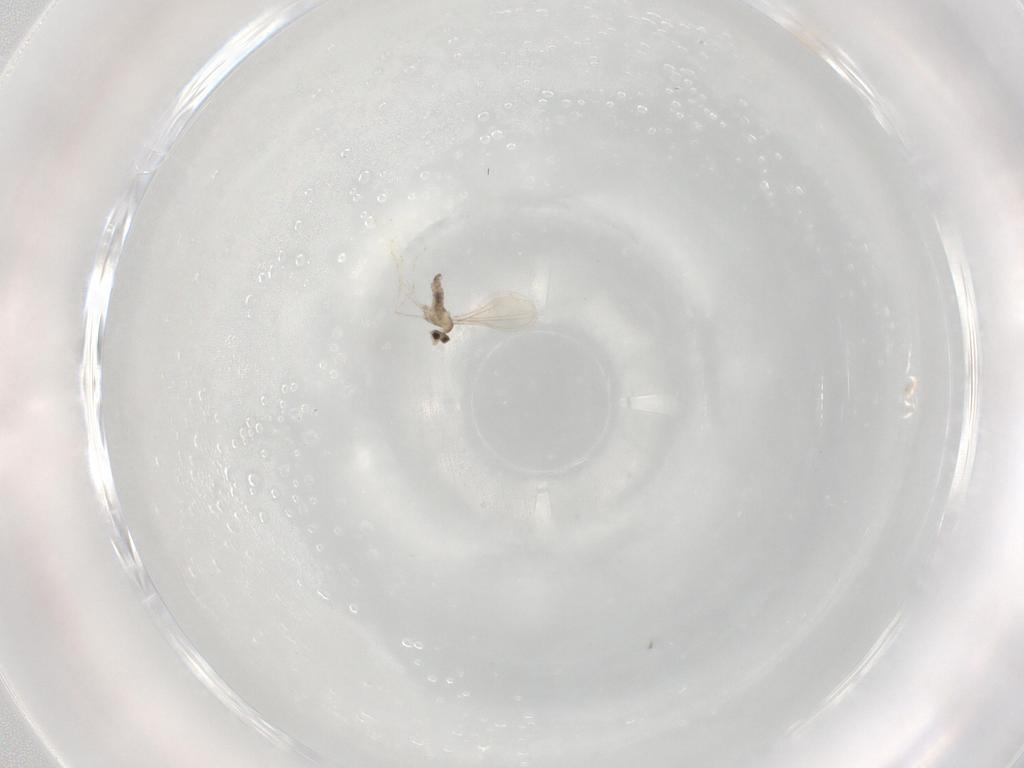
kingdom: Animalia
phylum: Arthropoda
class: Insecta
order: Diptera
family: Cecidomyiidae
